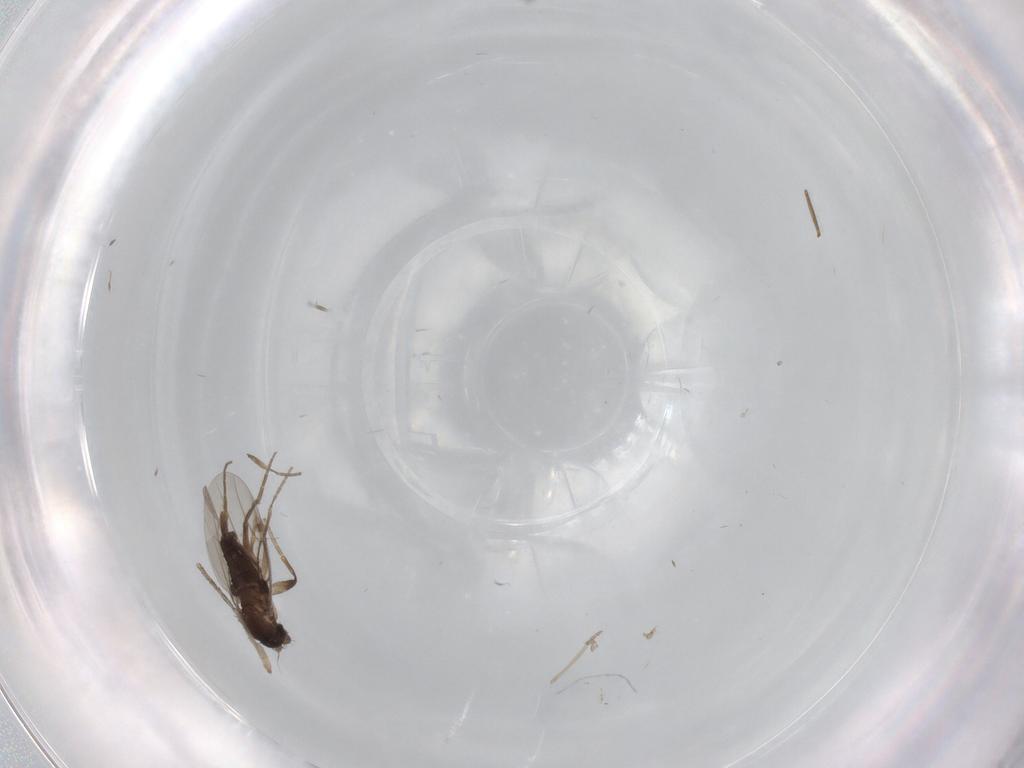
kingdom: Animalia
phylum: Arthropoda
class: Insecta
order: Diptera
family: Phoridae
